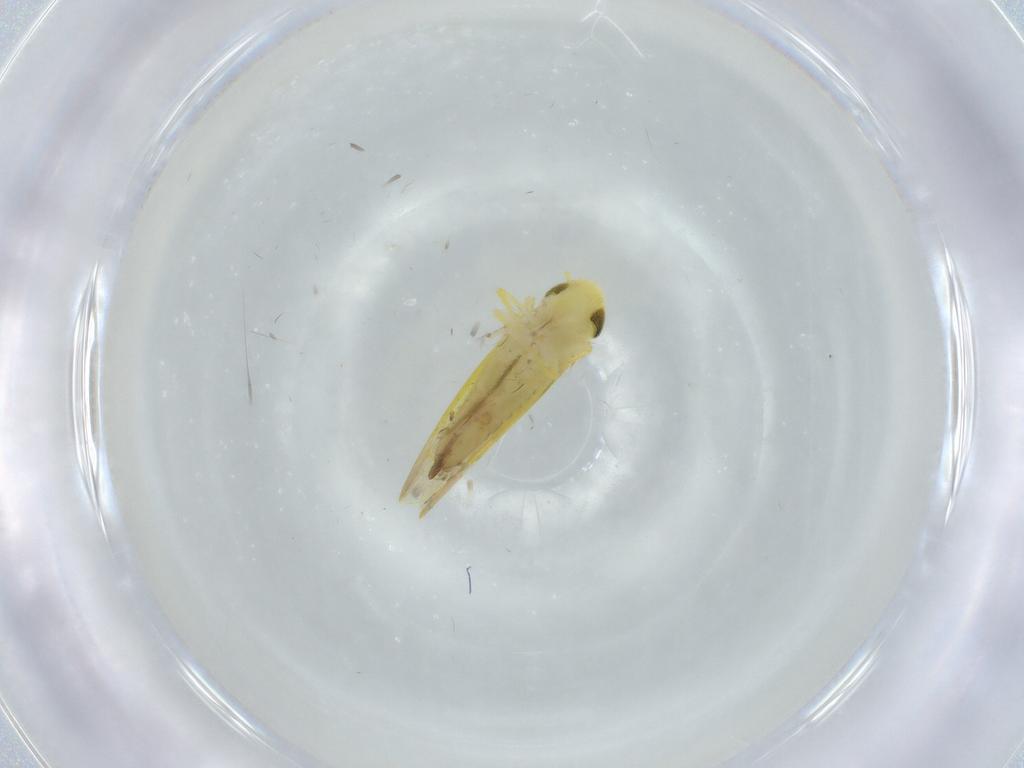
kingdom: Animalia
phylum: Arthropoda
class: Insecta
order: Hemiptera
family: Cicadellidae
